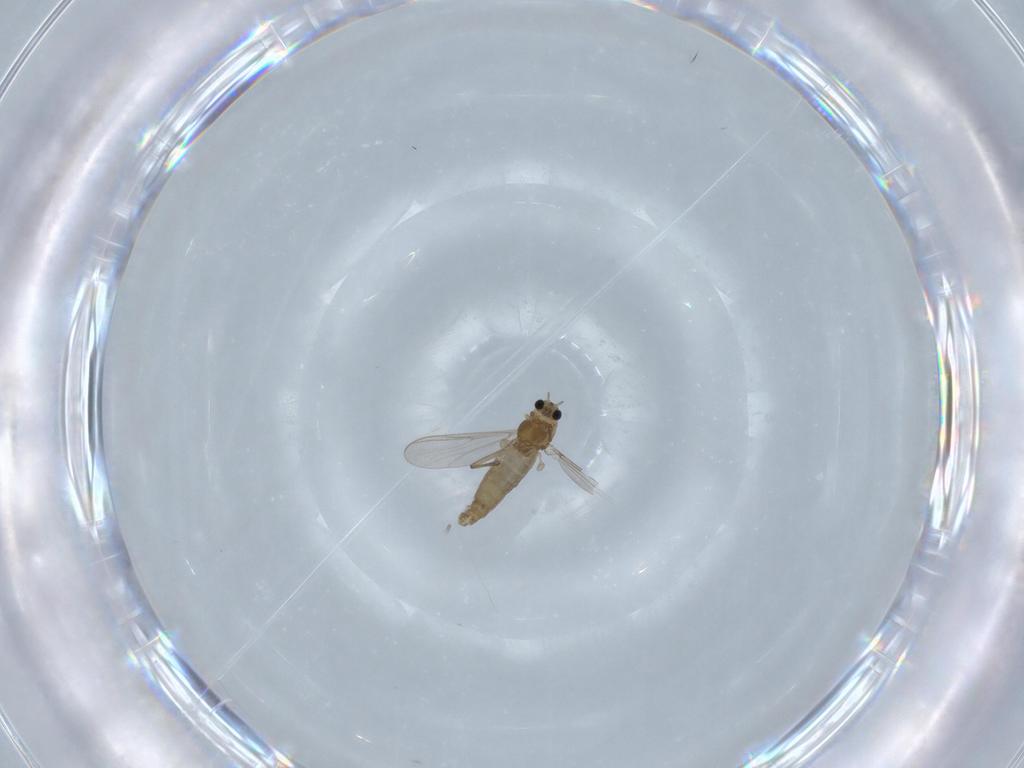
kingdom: Animalia
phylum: Arthropoda
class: Insecta
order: Diptera
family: Chironomidae
